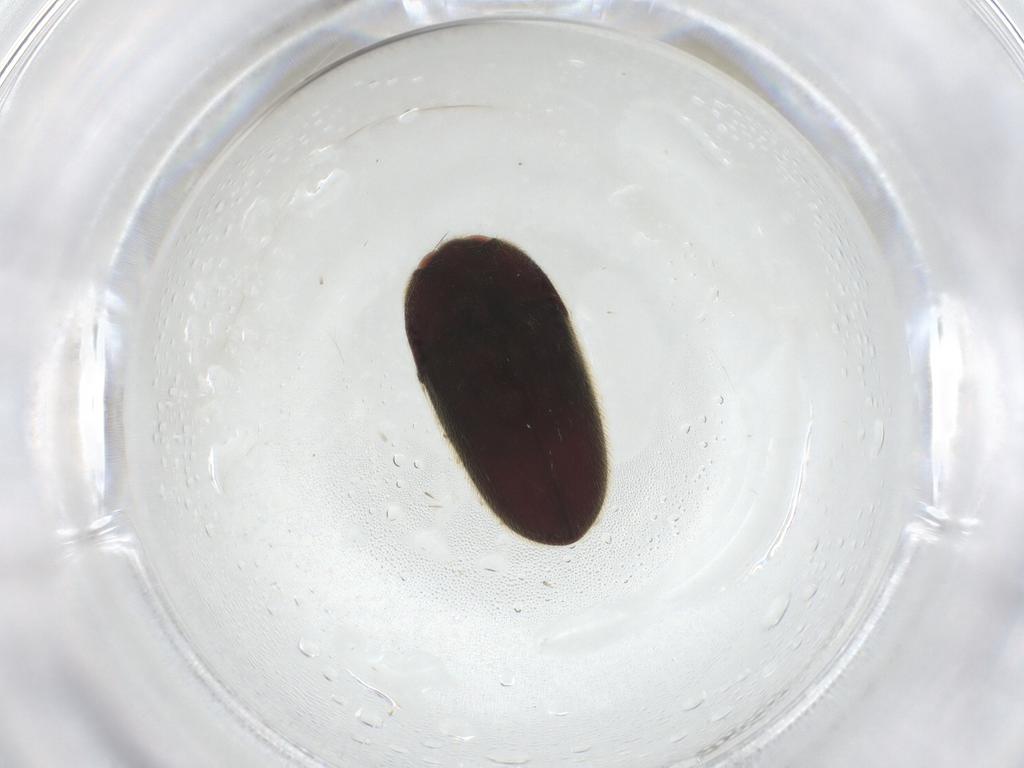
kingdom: Animalia
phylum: Arthropoda
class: Insecta
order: Coleoptera
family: Throscidae
